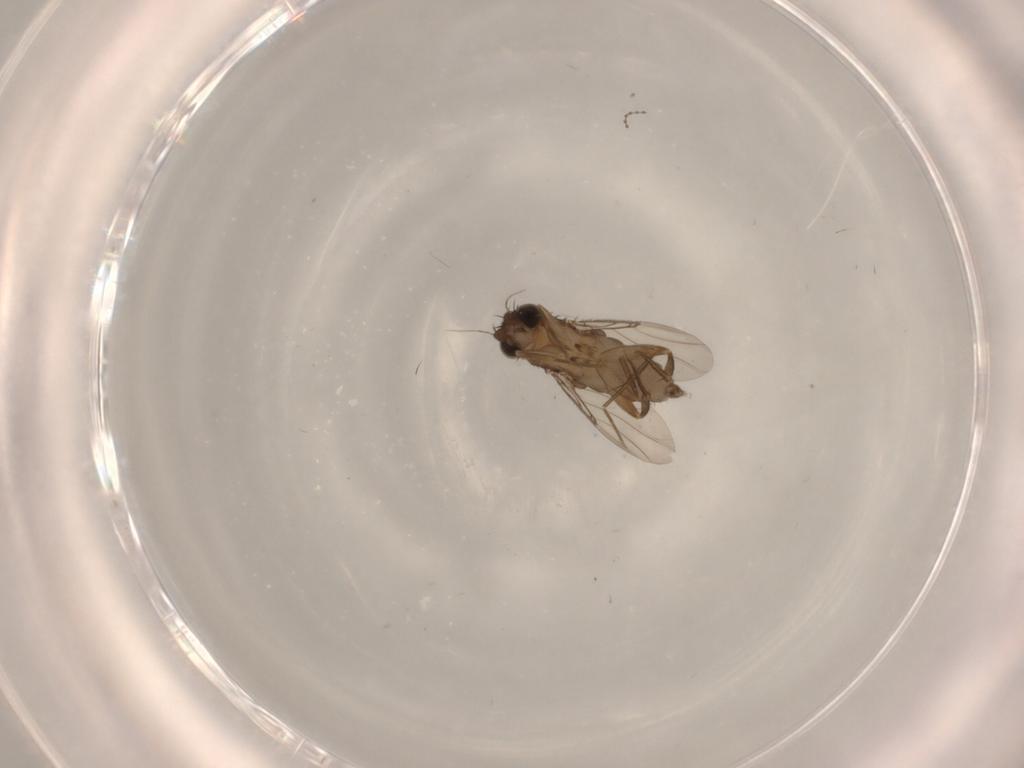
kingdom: Animalia
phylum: Arthropoda
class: Insecta
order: Diptera
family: Phoridae
